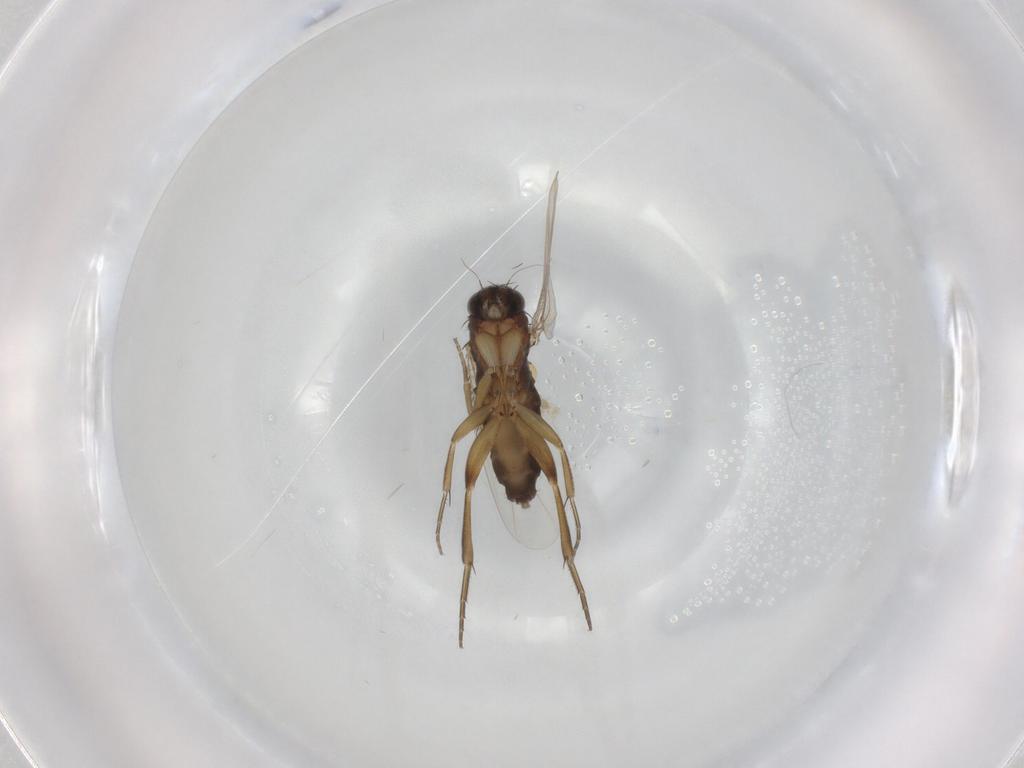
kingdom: Animalia
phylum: Arthropoda
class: Insecta
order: Diptera
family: Phoridae
